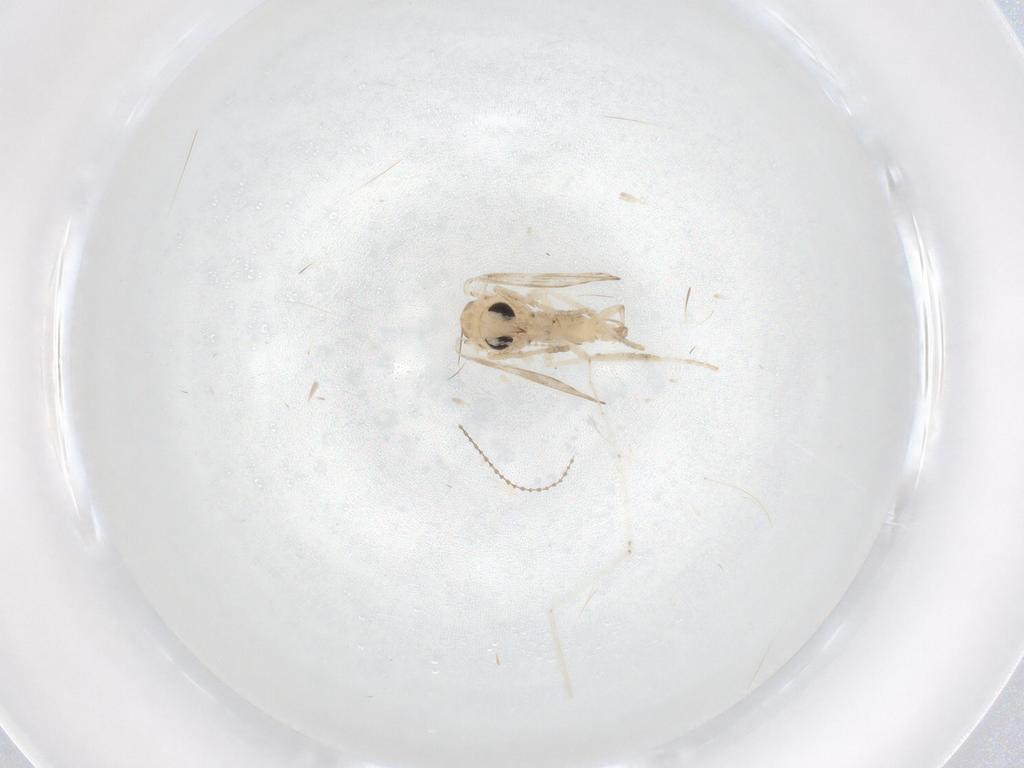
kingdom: Animalia
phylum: Arthropoda
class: Insecta
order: Diptera
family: Psychodidae
